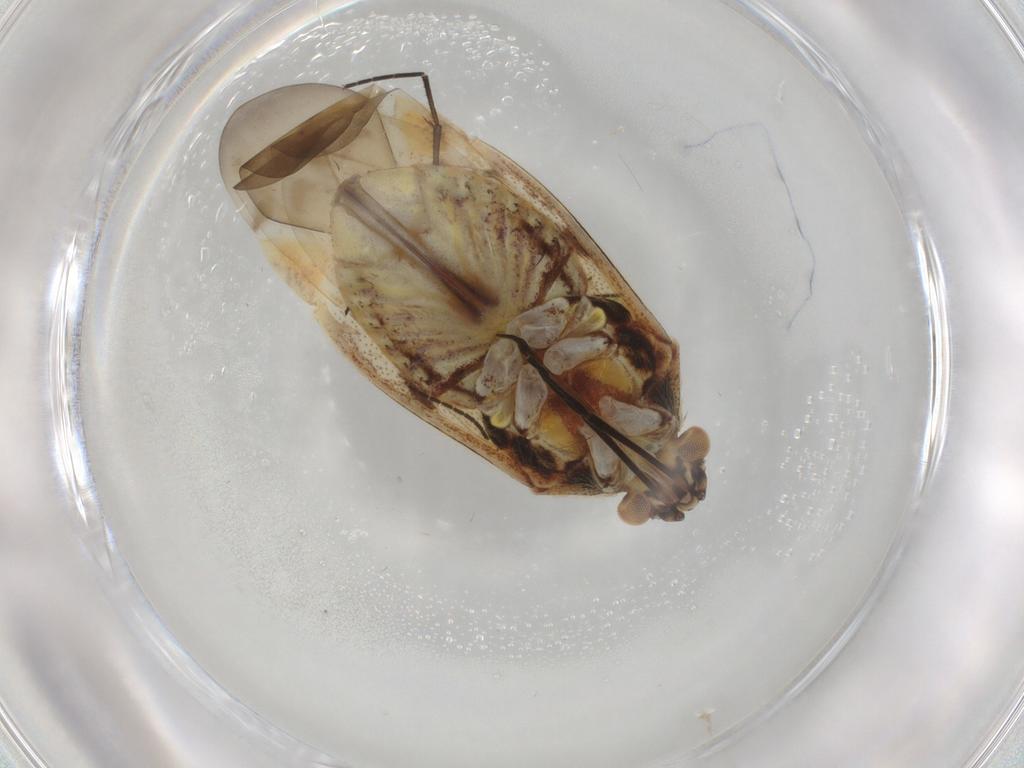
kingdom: Animalia
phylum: Arthropoda
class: Insecta
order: Hemiptera
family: Miridae
